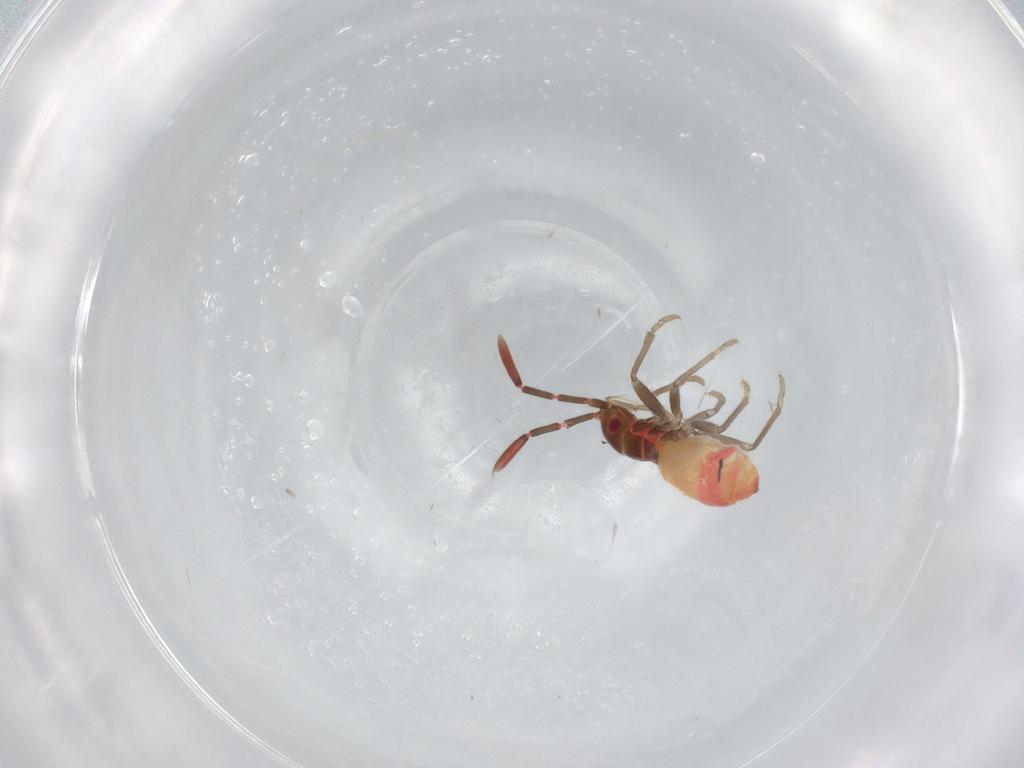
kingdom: Animalia
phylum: Arthropoda
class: Insecta
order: Hemiptera
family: Rhyparochromidae
